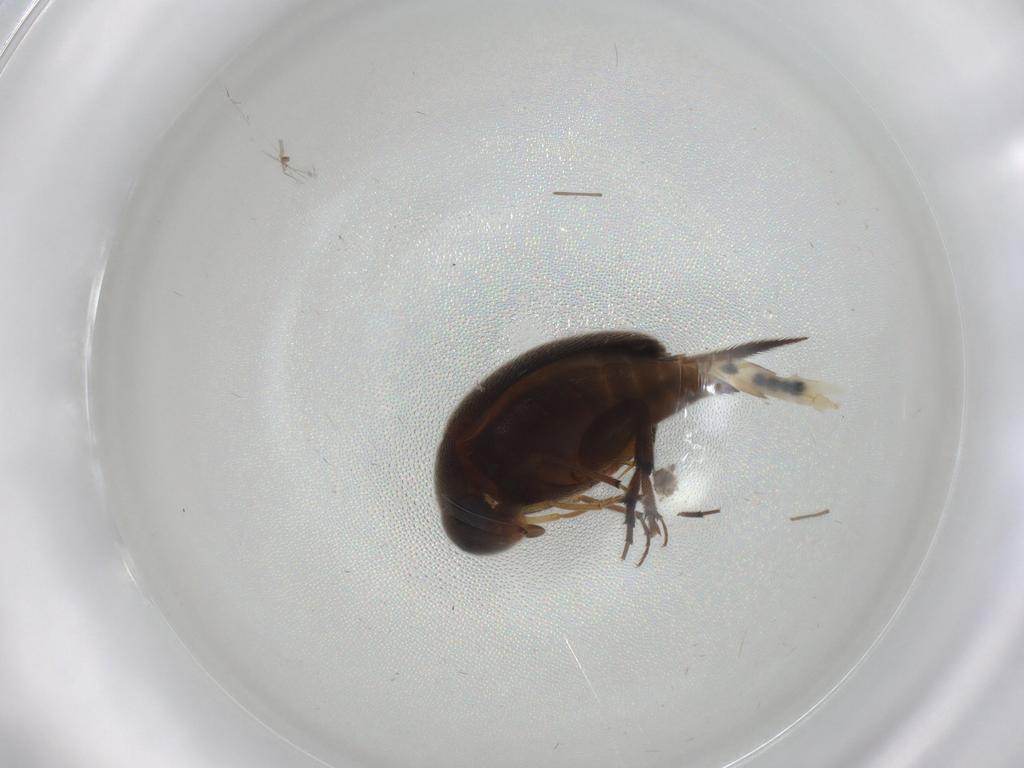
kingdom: Animalia
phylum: Arthropoda
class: Insecta
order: Coleoptera
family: Mordellidae
